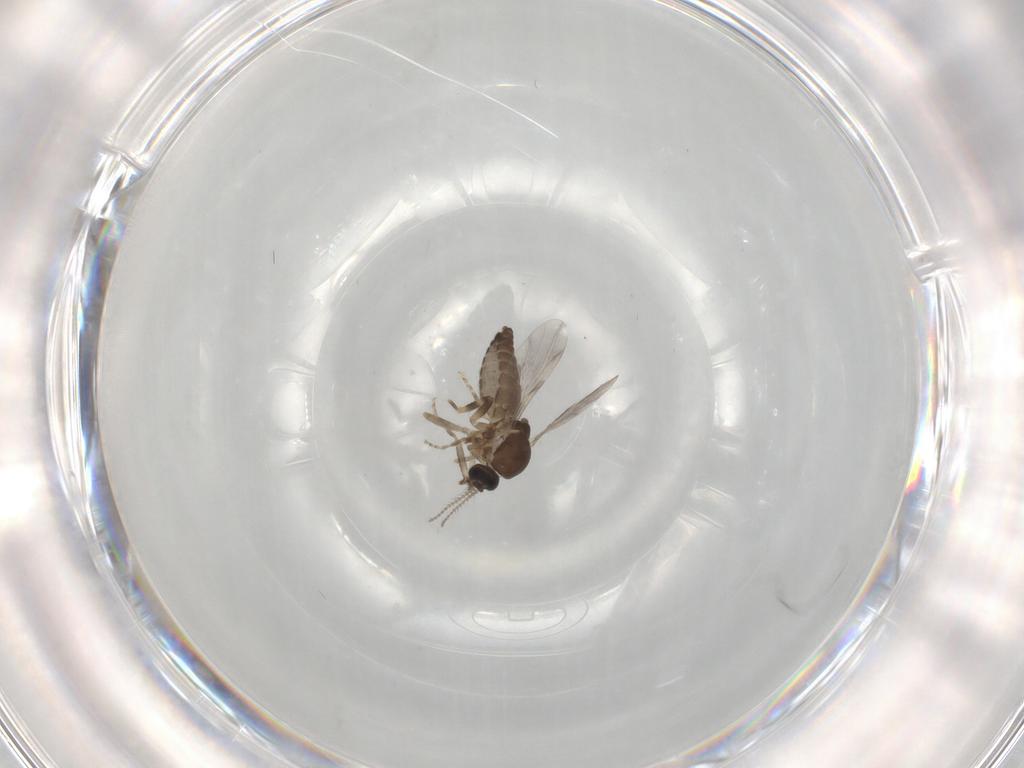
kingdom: Animalia
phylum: Arthropoda
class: Insecta
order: Diptera
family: Ceratopogonidae
